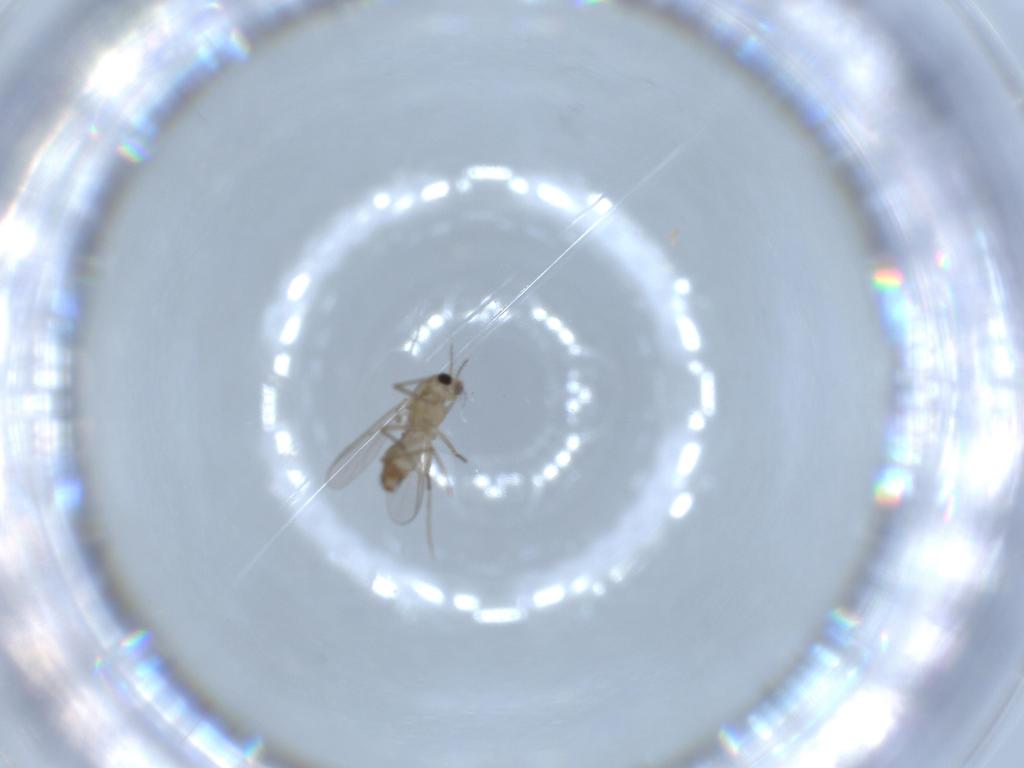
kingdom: Animalia
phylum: Arthropoda
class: Insecta
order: Diptera
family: Chironomidae
